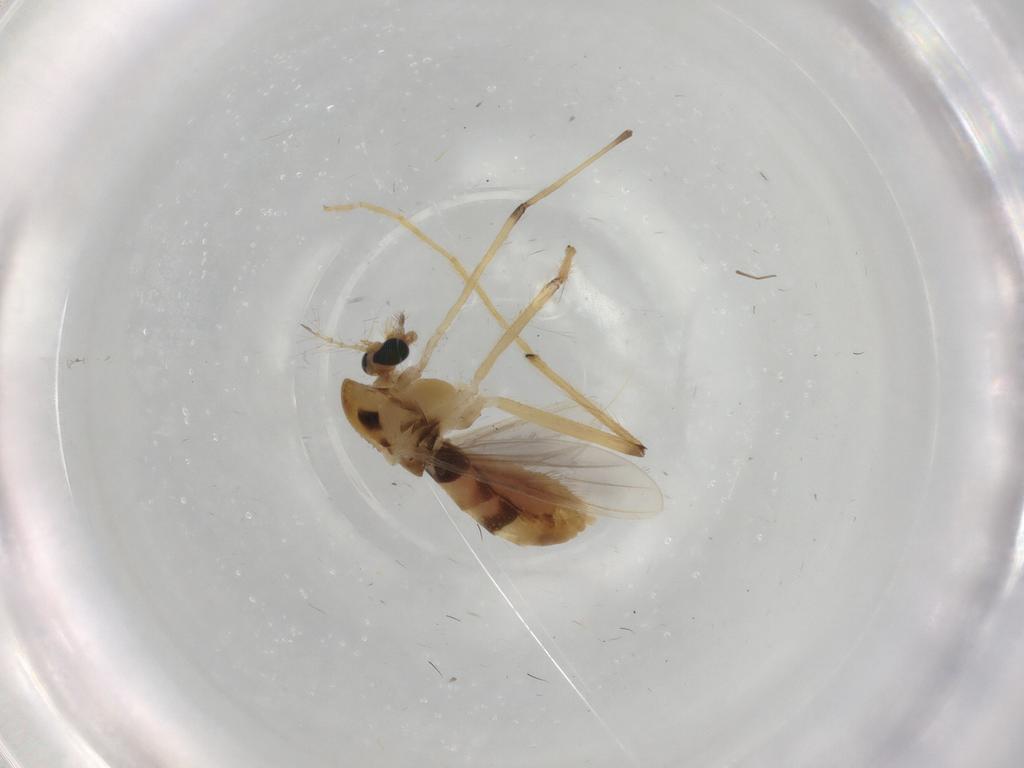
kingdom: Animalia
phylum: Arthropoda
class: Insecta
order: Diptera
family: Chironomidae
